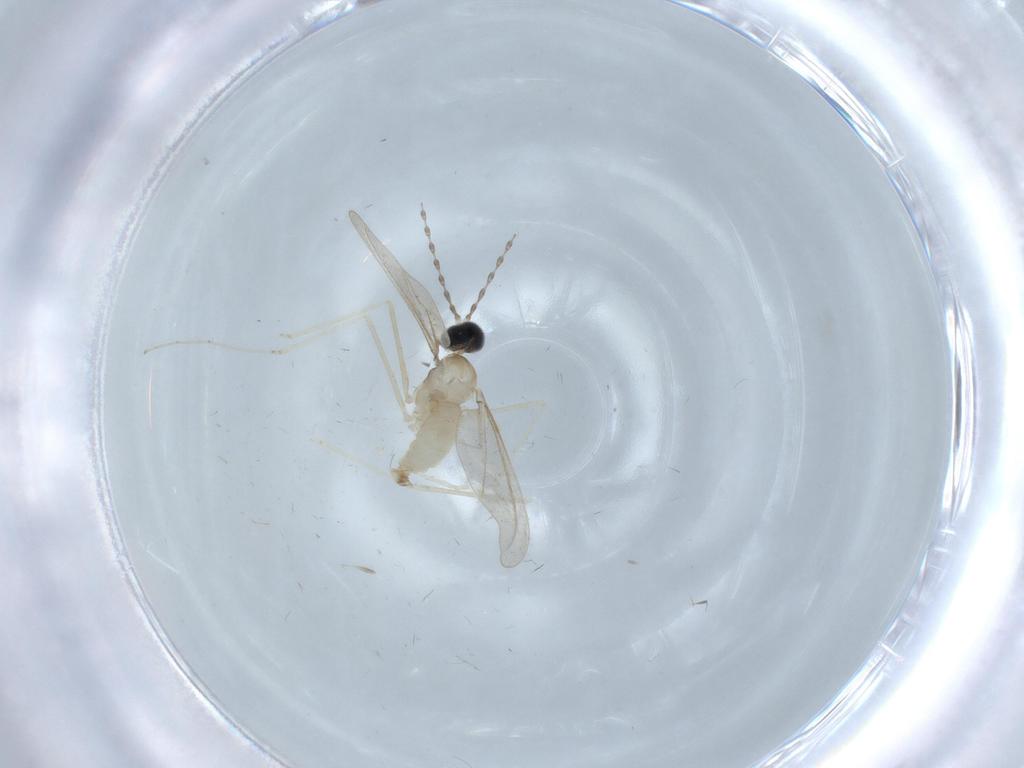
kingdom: Animalia
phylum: Arthropoda
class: Insecta
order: Diptera
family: Cecidomyiidae
